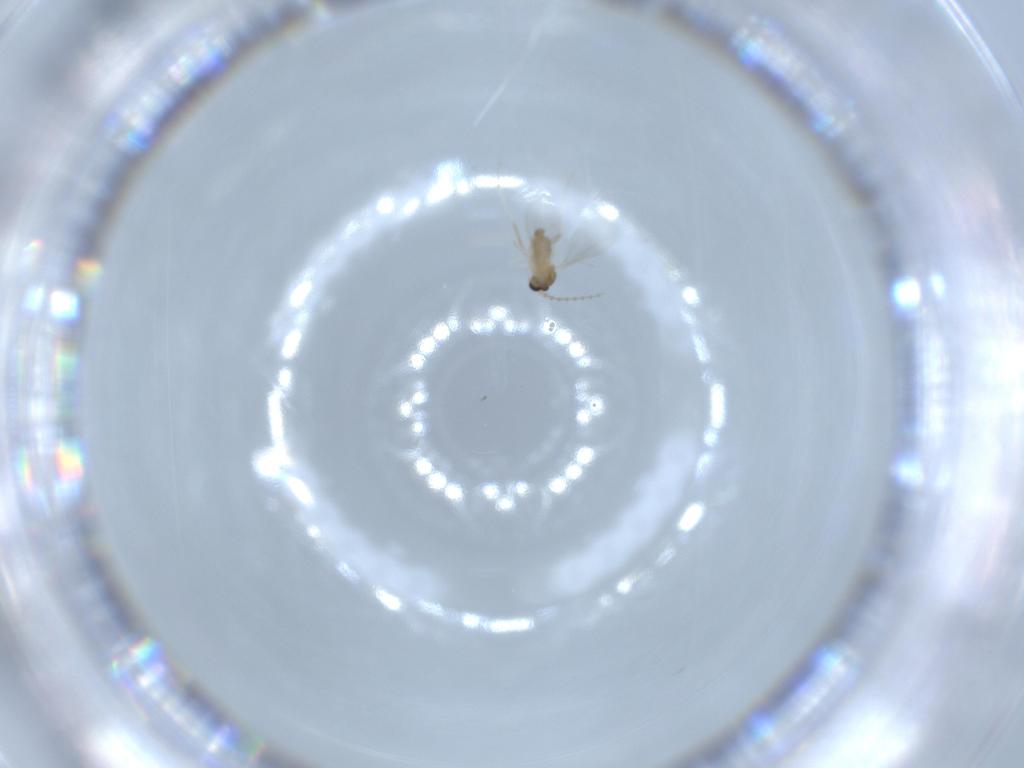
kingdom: Animalia
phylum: Arthropoda
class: Insecta
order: Diptera
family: Cecidomyiidae
